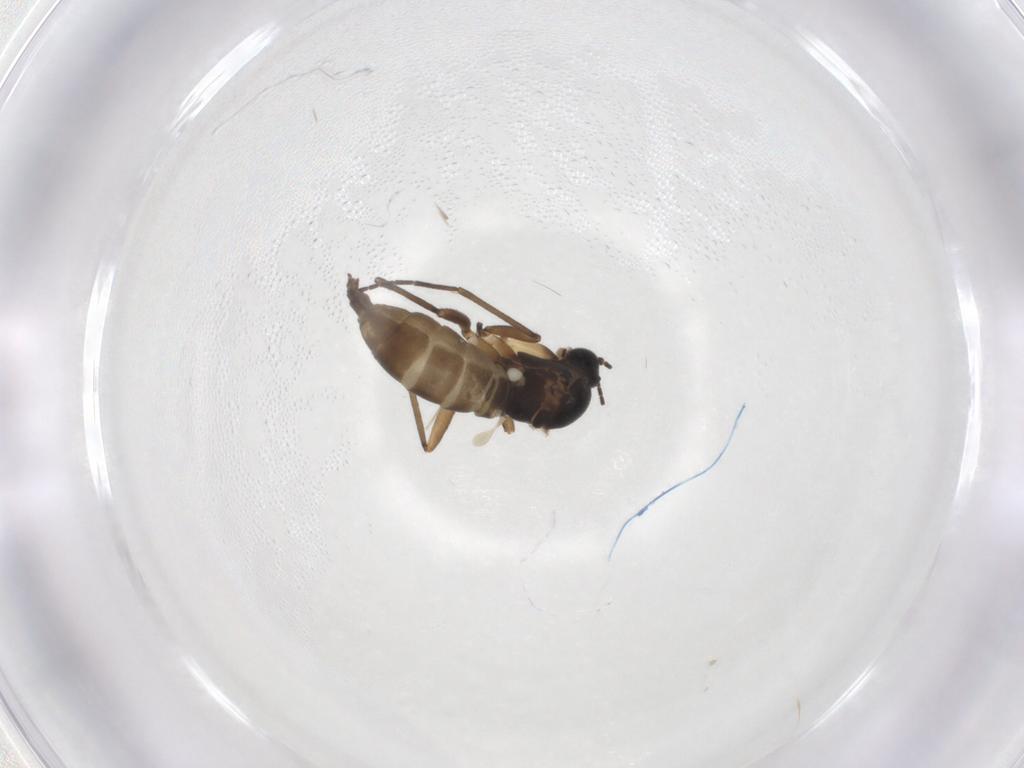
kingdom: Animalia
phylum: Arthropoda
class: Insecta
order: Diptera
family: Sciaridae
